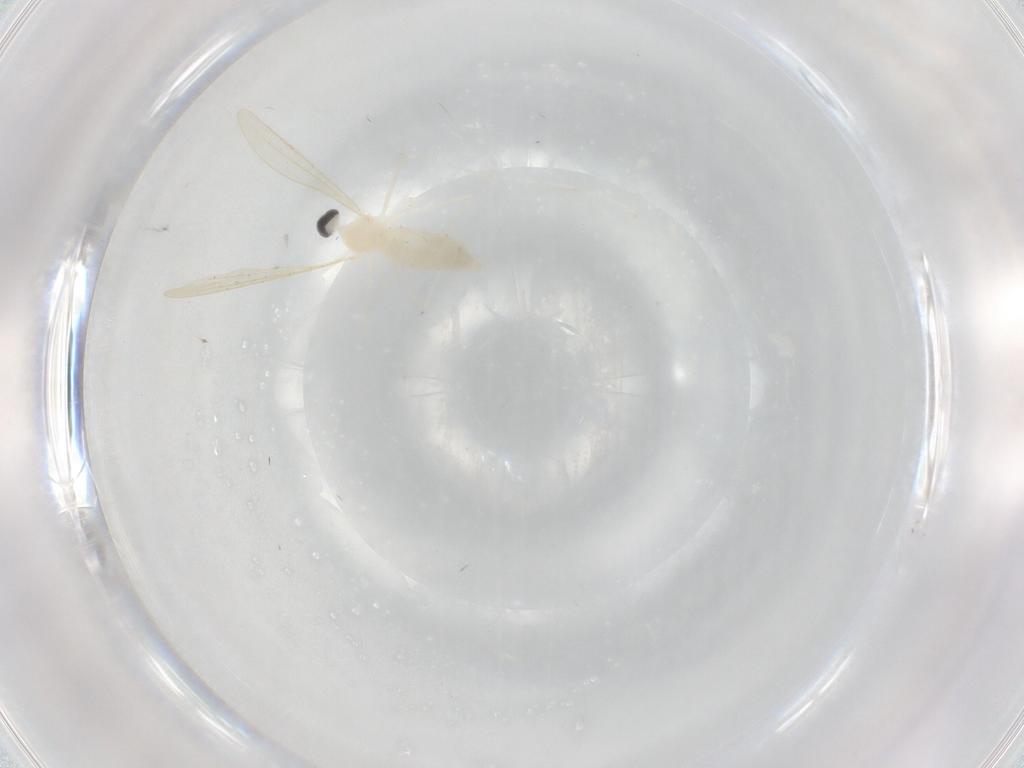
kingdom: Animalia
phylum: Arthropoda
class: Insecta
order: Diptera
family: Cecidomyiidae
